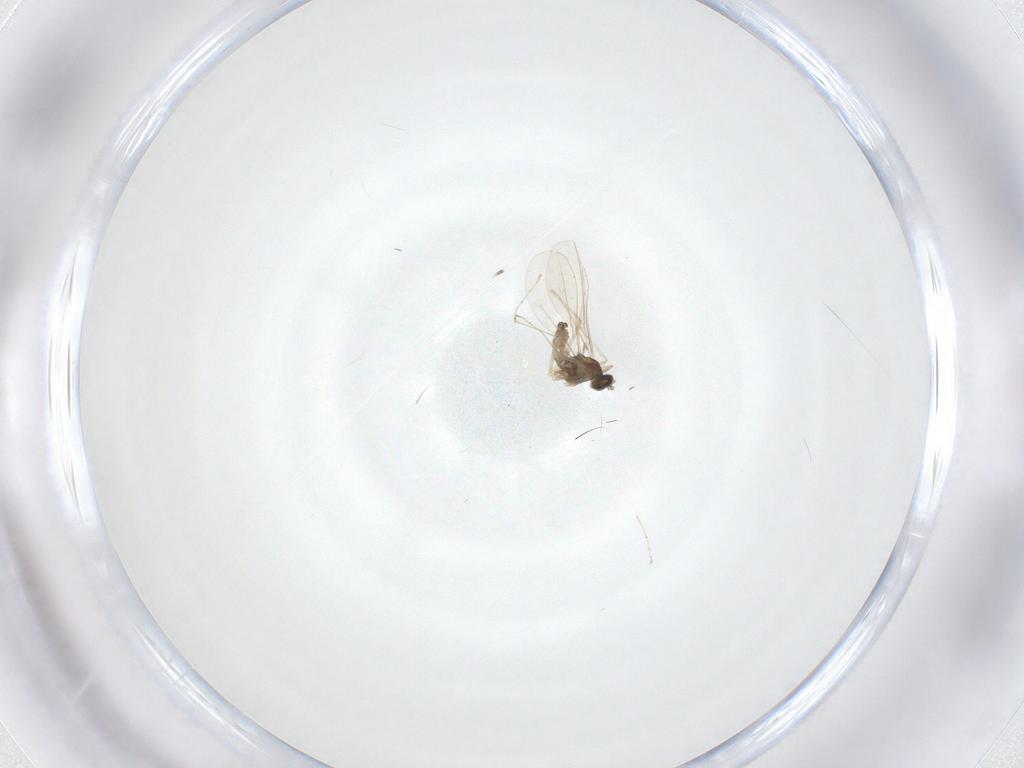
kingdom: Animalia
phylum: Arthropoda
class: Insecta
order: Diptera
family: Cecidomyiidae
